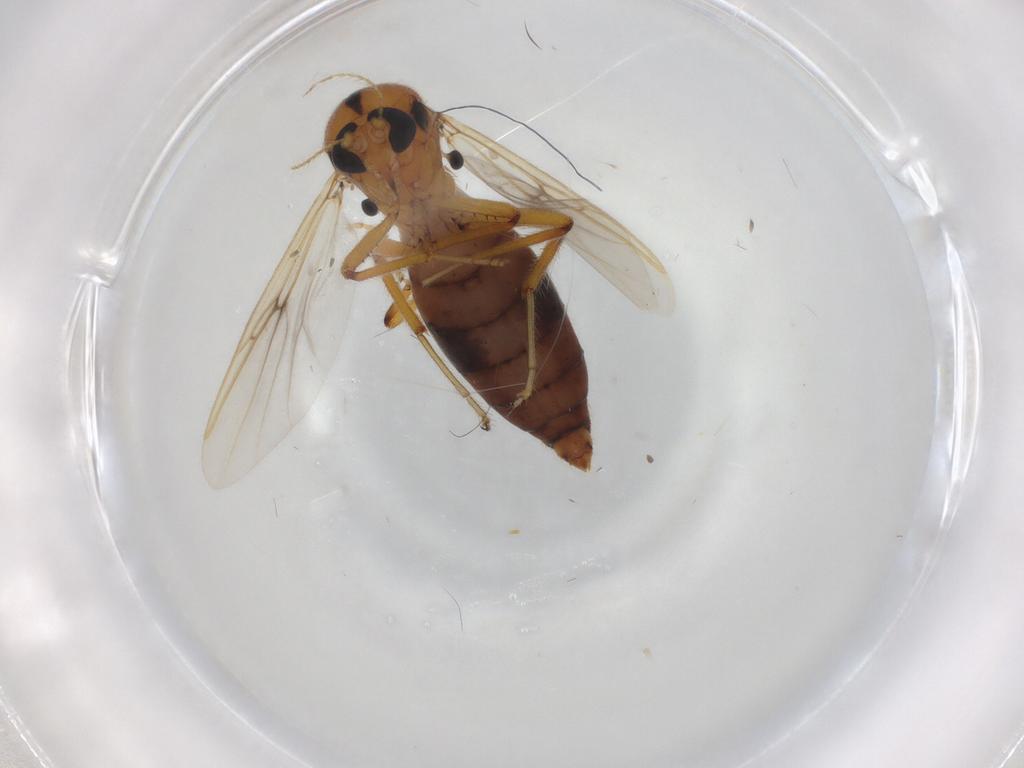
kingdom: Animalia
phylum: Arthropoda
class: Insecta
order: Diptera
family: Ceratopogonidae
